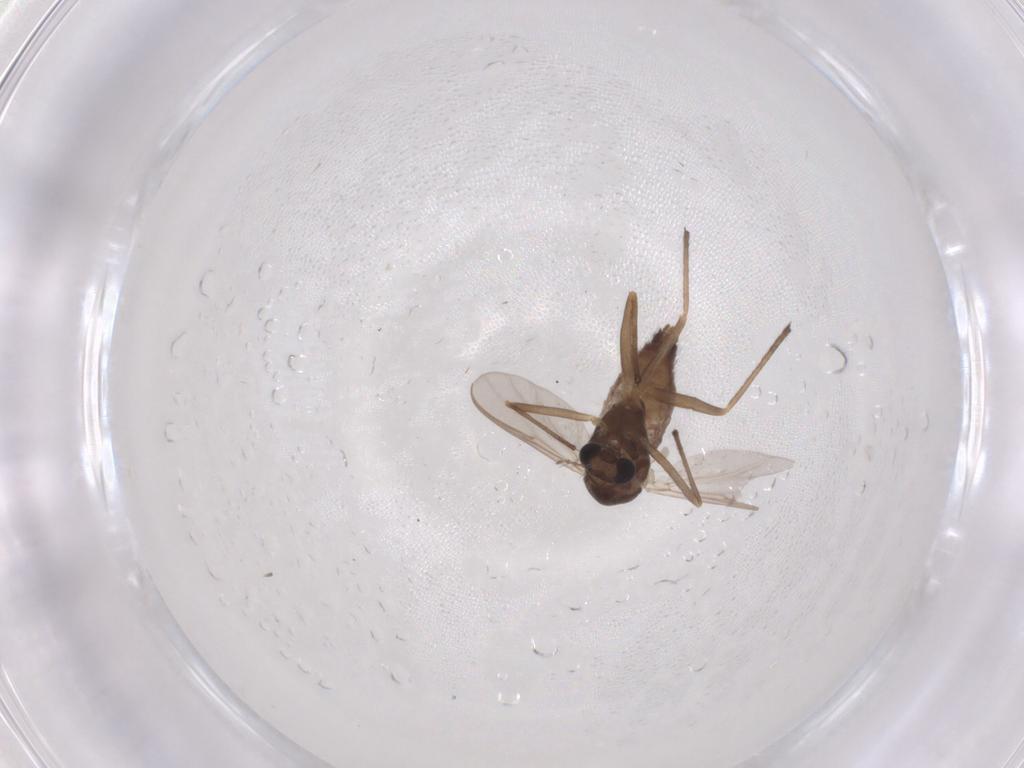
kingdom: Animalia
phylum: Arthropoda
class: Insecta
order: Diptera
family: Chironomidae
